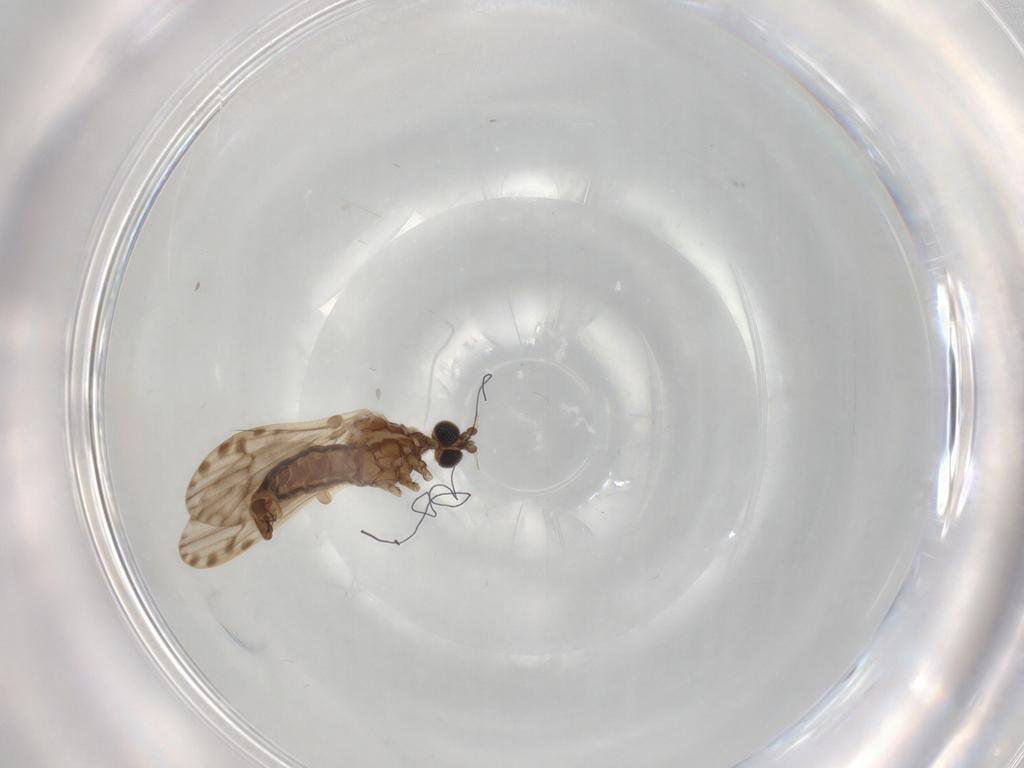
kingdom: Animalia
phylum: Arthropoda
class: Insecta
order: Diptera
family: Limoniidae
